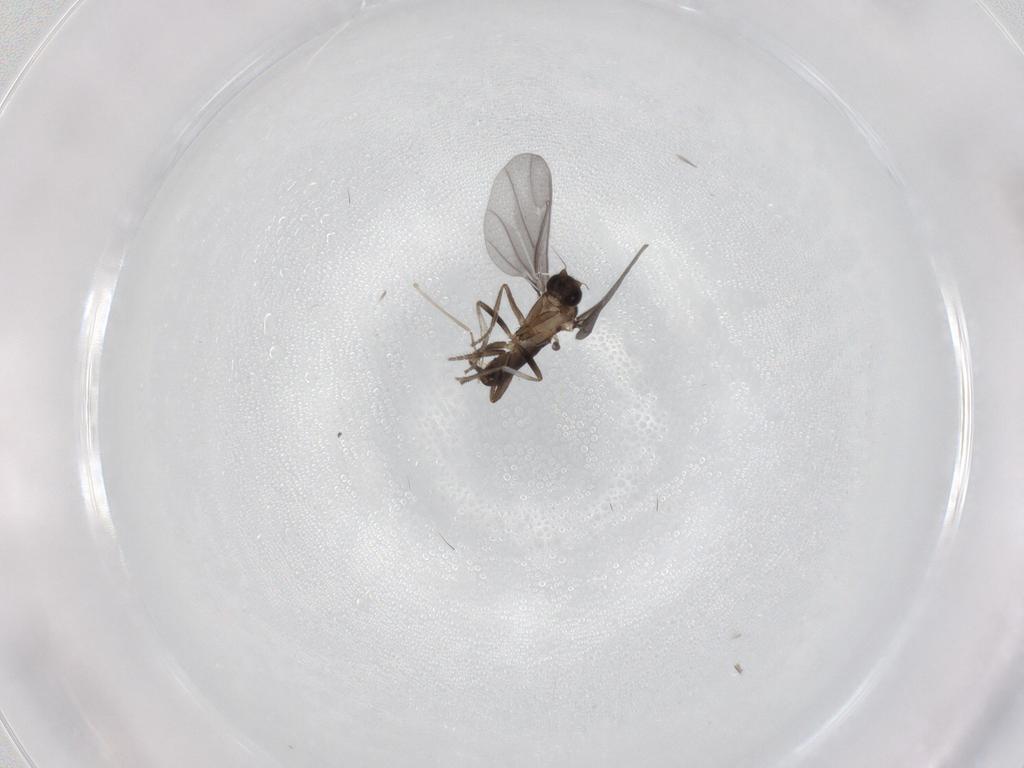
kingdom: Animalia
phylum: Arthropoda
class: Insecta
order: Diptera
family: Phoridae
